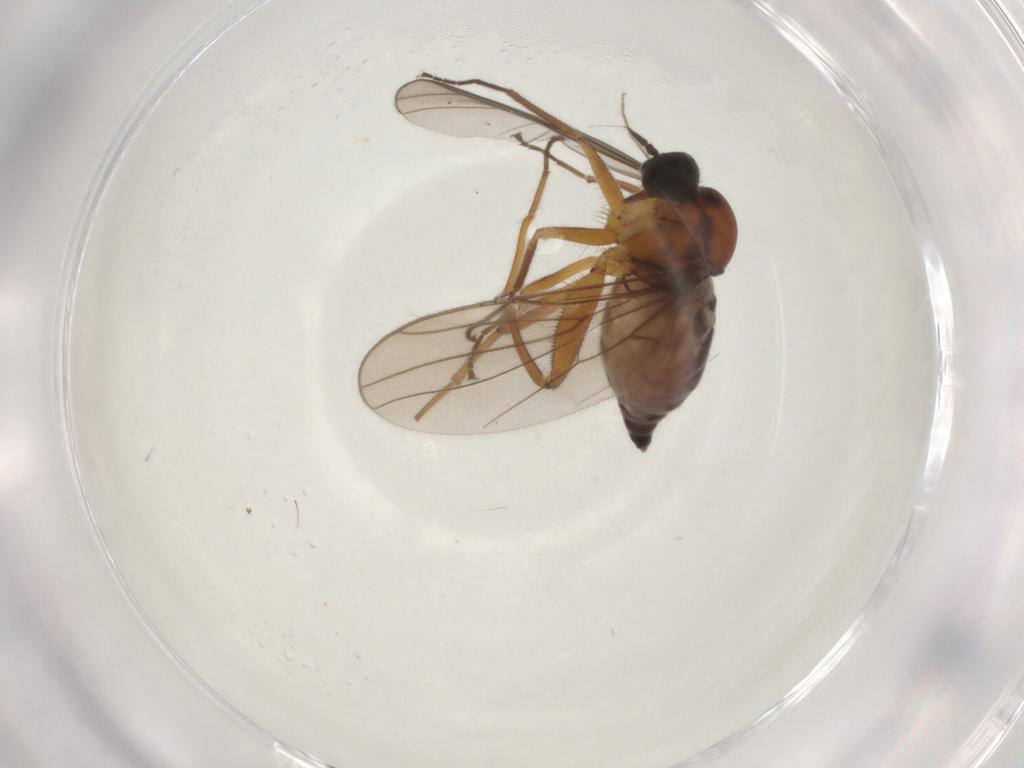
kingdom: Animalia
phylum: Arthropoda
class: Insecta
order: Diptera
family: Hybotidae
